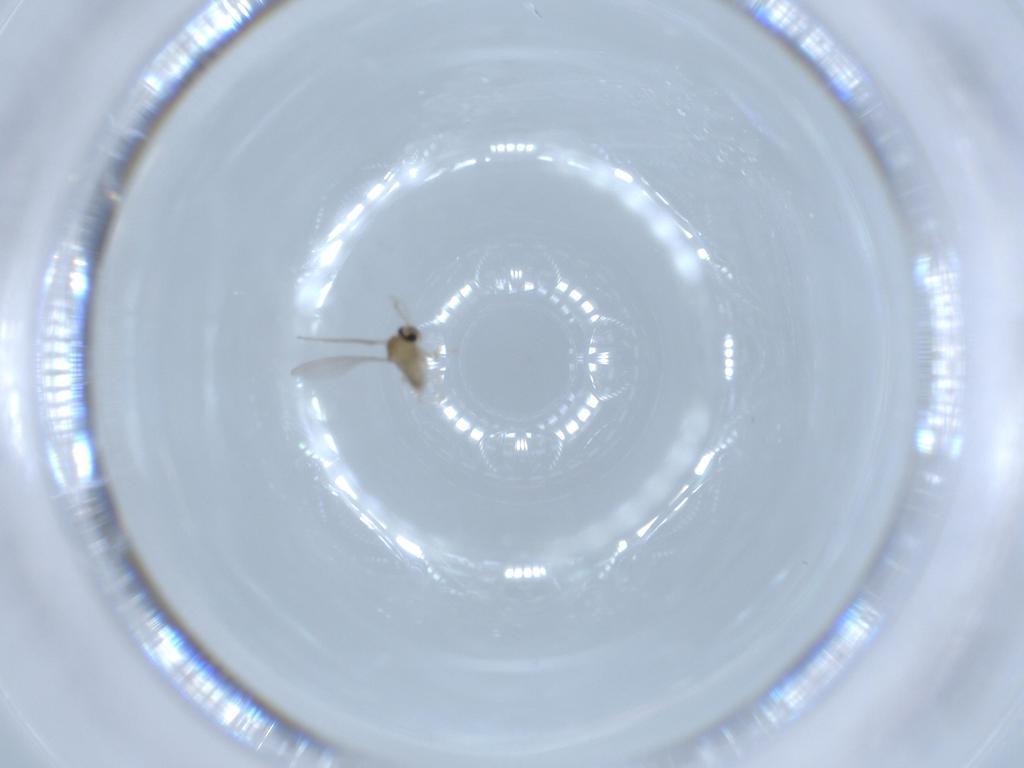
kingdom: Animalia
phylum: Arthropoda
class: Insecta
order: Diptera
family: Cecidomyiidae
